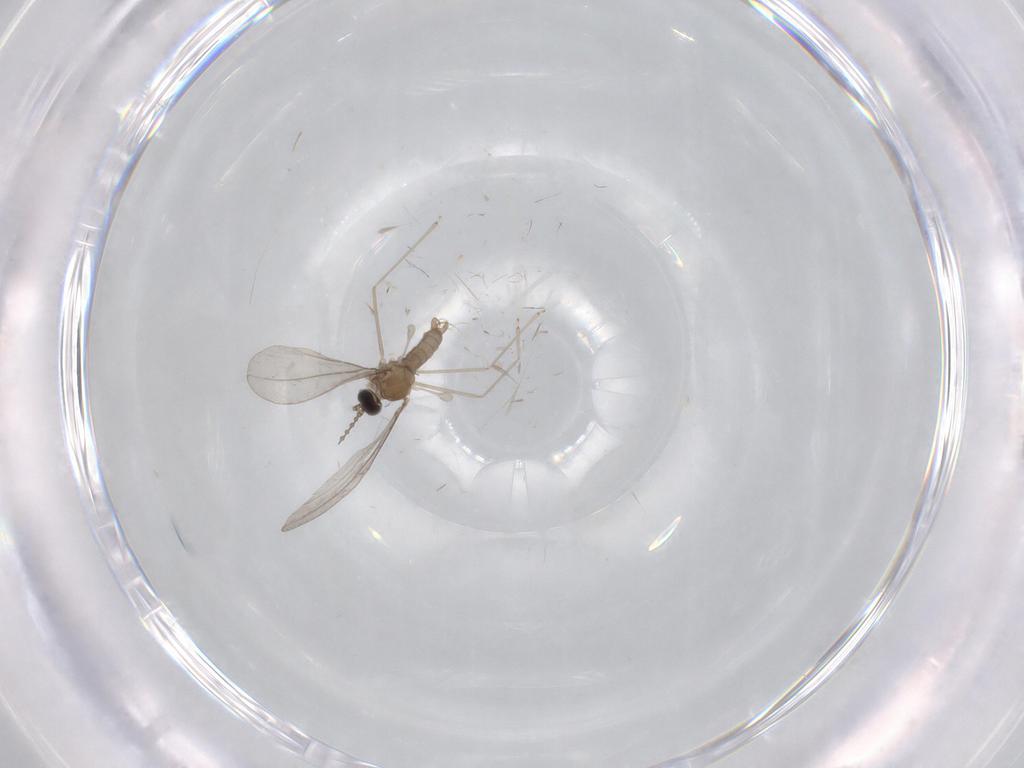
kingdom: Animalia
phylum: Arthropoda
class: Insecta
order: Diptera
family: Cecidomyiidae
